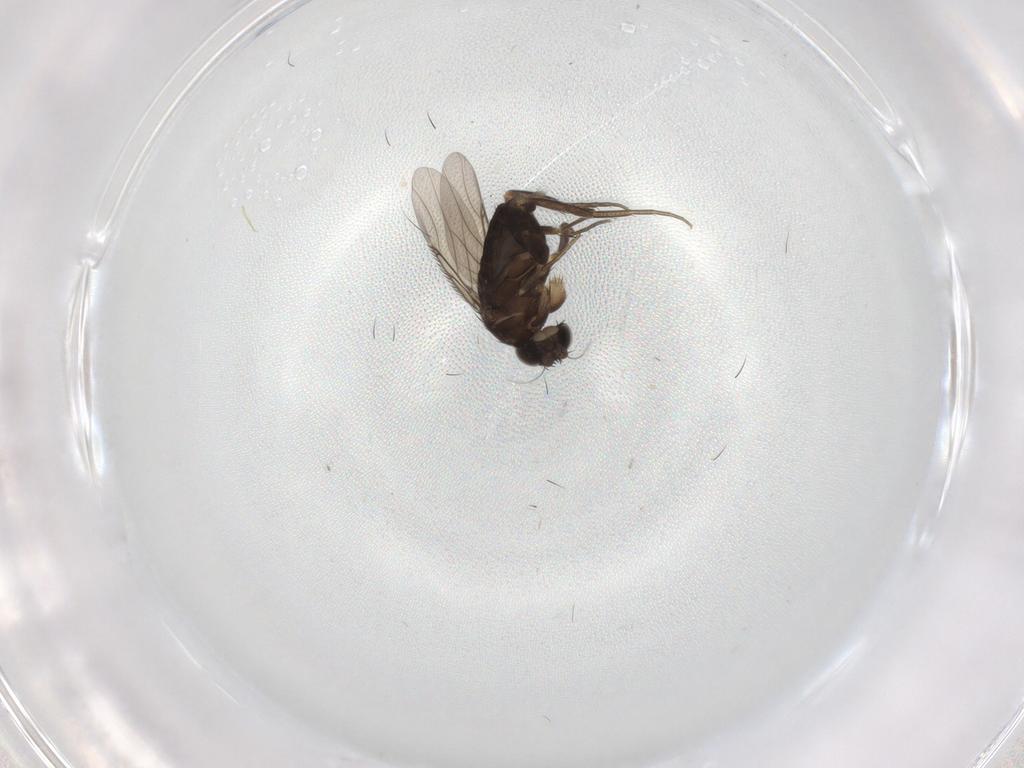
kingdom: Animalia
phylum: Arthropoda
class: Insecta
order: Diptera
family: Phoridae
